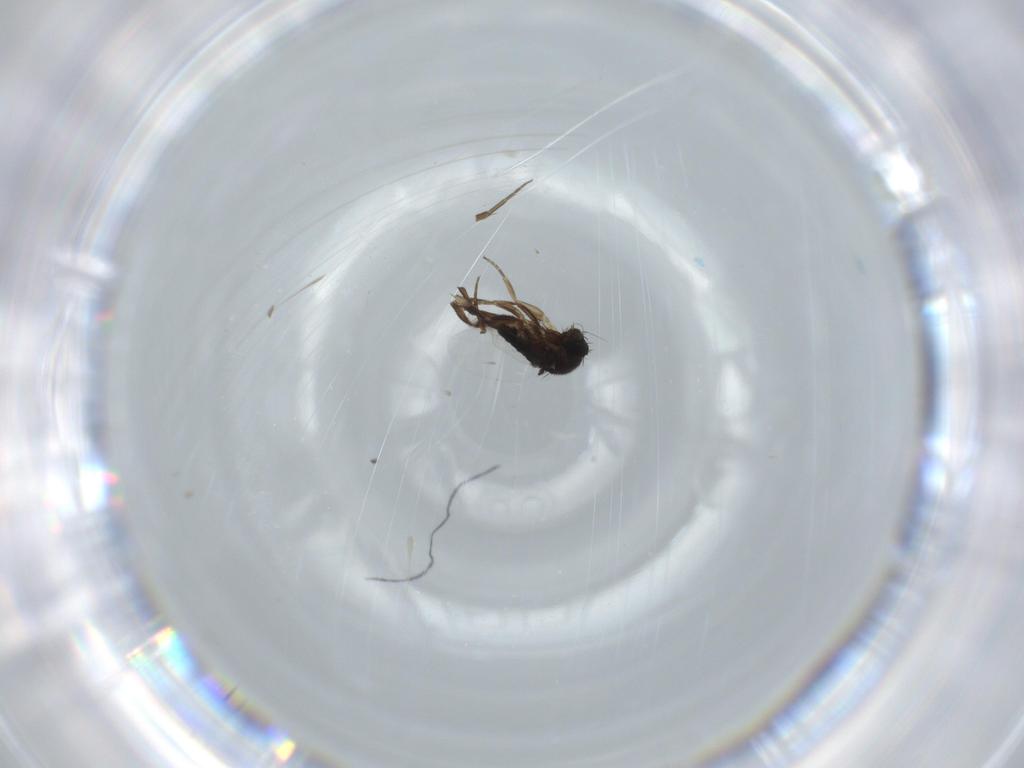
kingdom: Animalia
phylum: Arthropoda
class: Insecta
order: Diptera
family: Phoridae
